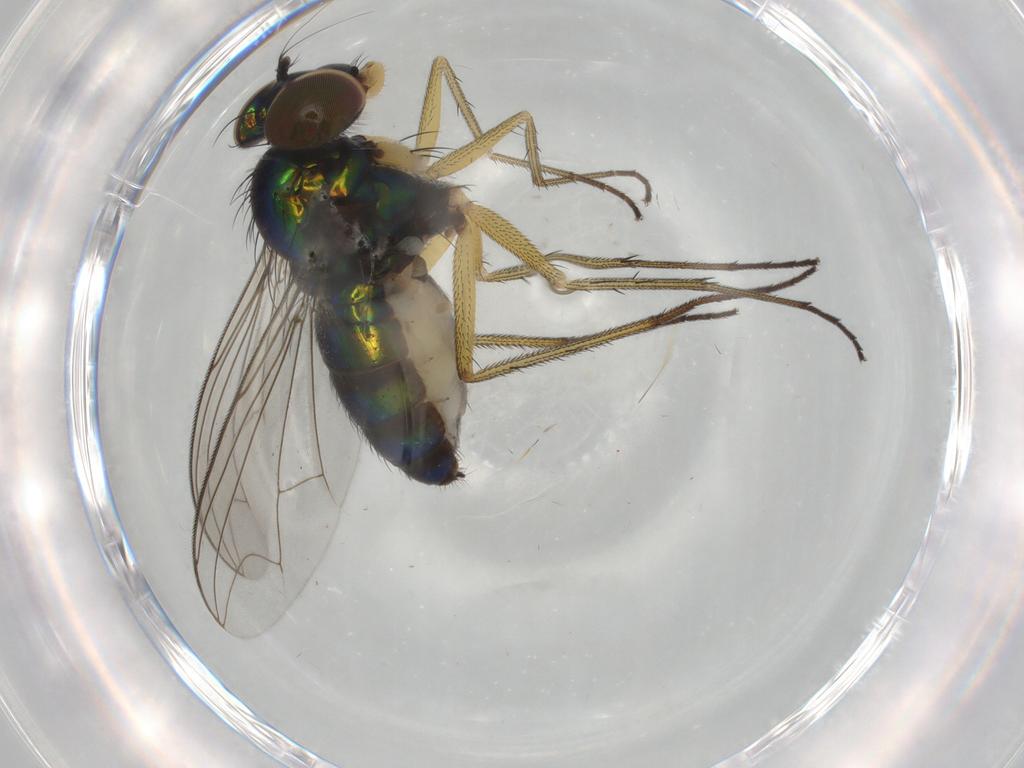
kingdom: Animalia
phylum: Arthropoda
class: Insecta
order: Diptera
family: Dolichopodidae
